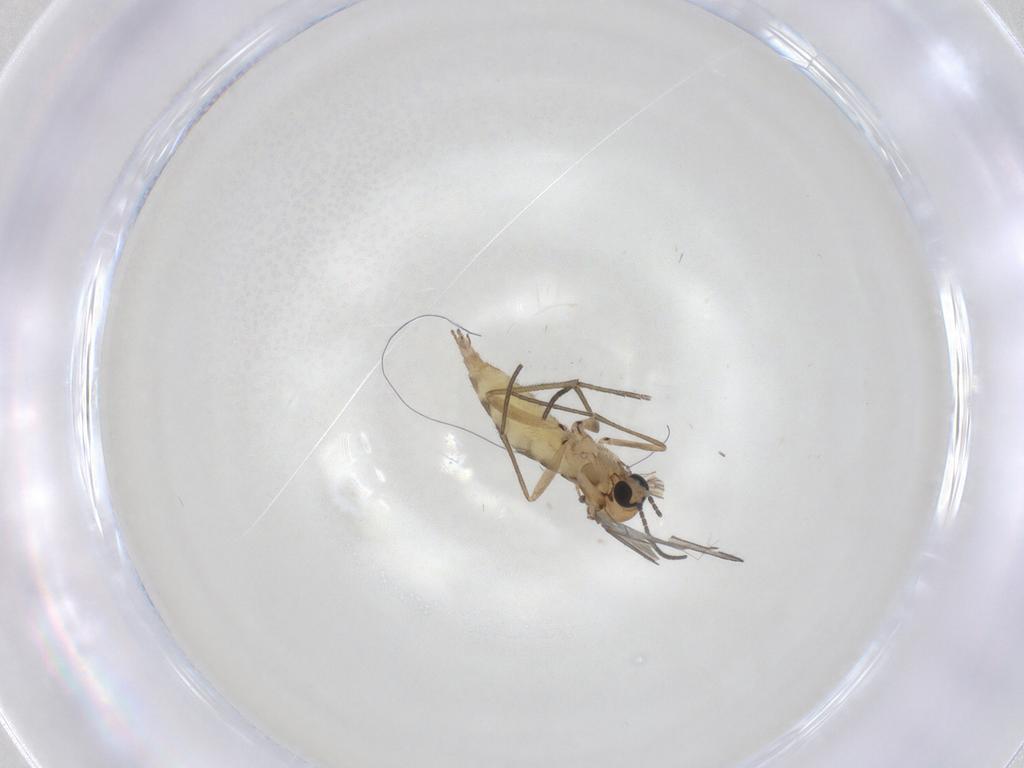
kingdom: Animalia
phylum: Arthropoda
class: Insecta
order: Diptera
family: Sciaridae
